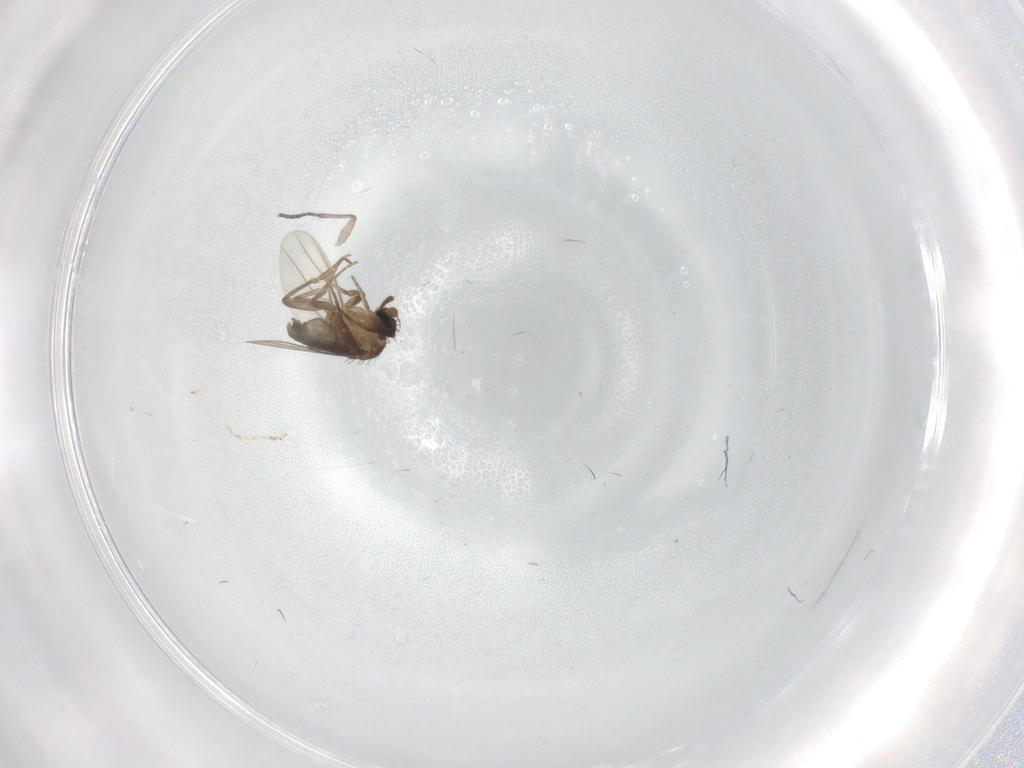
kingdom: Animalia
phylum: Arthropoda
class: Insecta
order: Diptera
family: Sciaridae
